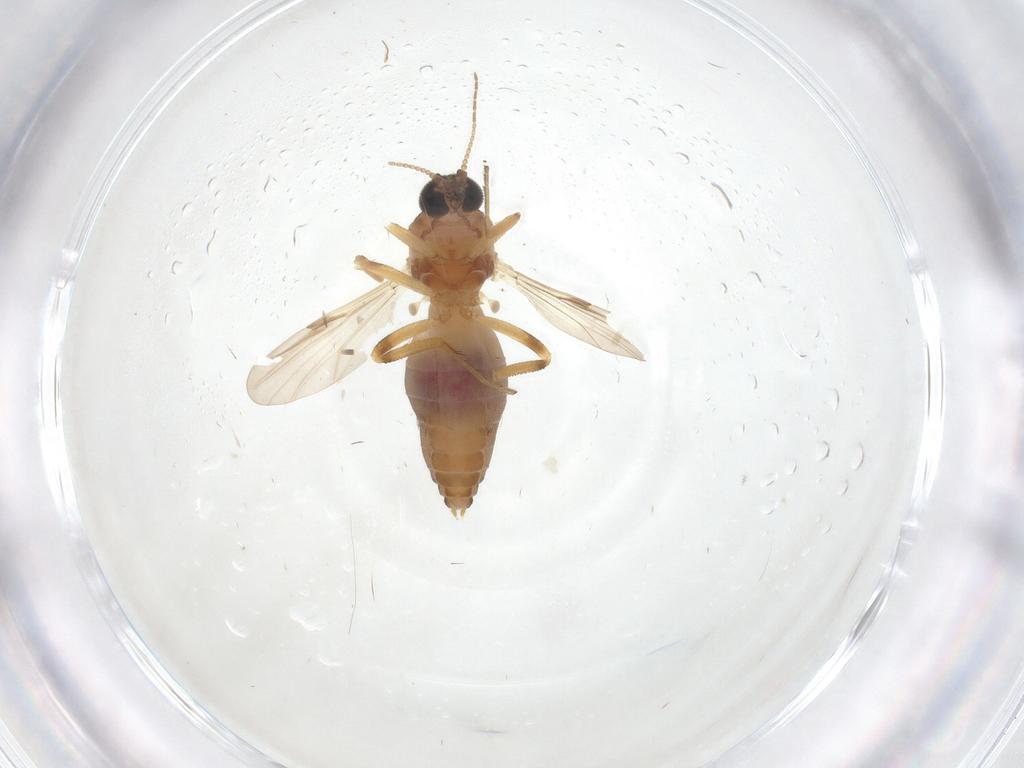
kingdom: Animalia
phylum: Arthropoda
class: Insecta
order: Diptera
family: Ceratopogonidae
